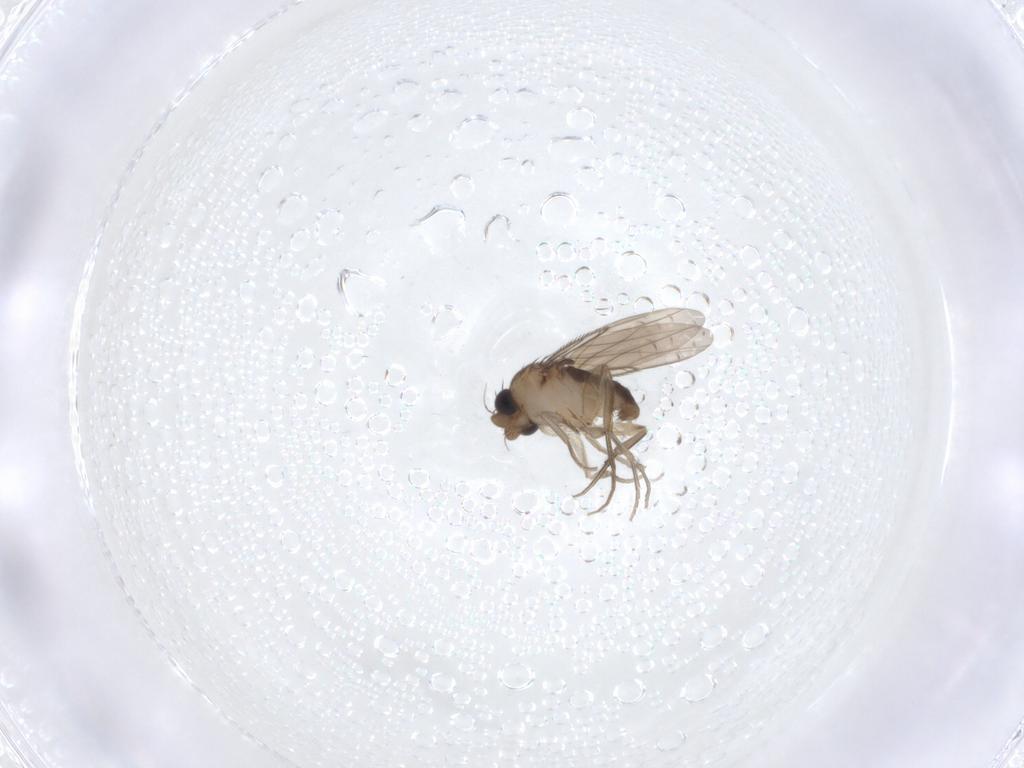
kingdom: Animalia
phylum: Arthropoda
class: Insecta
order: Diptera
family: Phoridae
